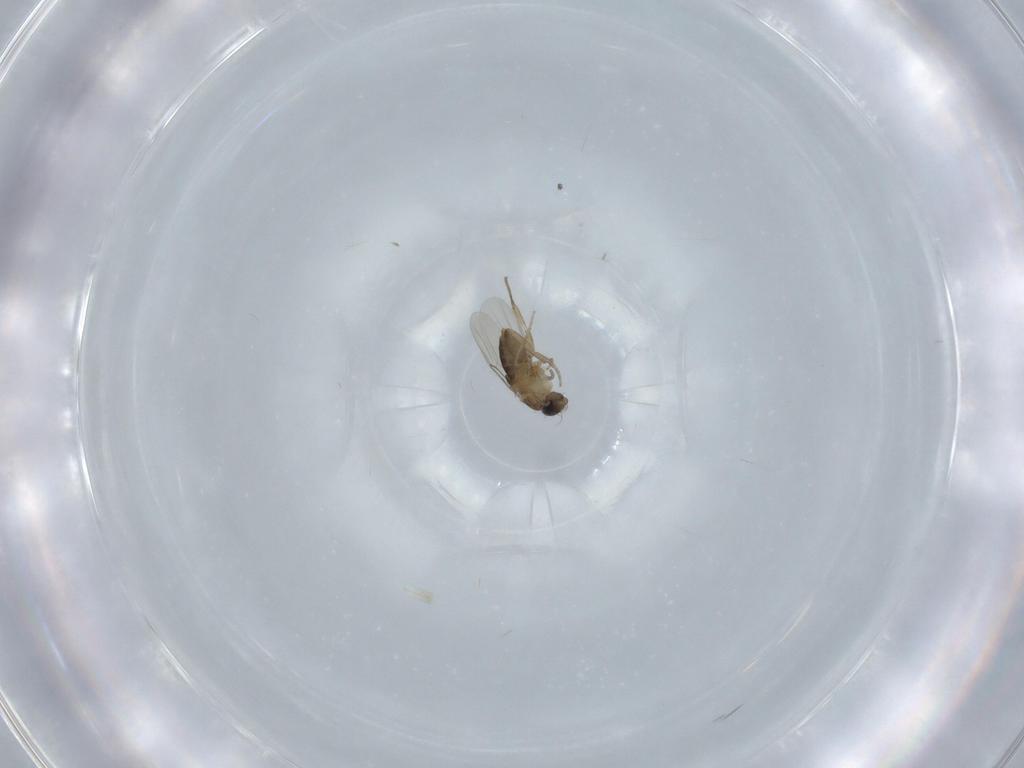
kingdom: Animalia
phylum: Arthropoda
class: Insecta
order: Diptera
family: Phoridae
